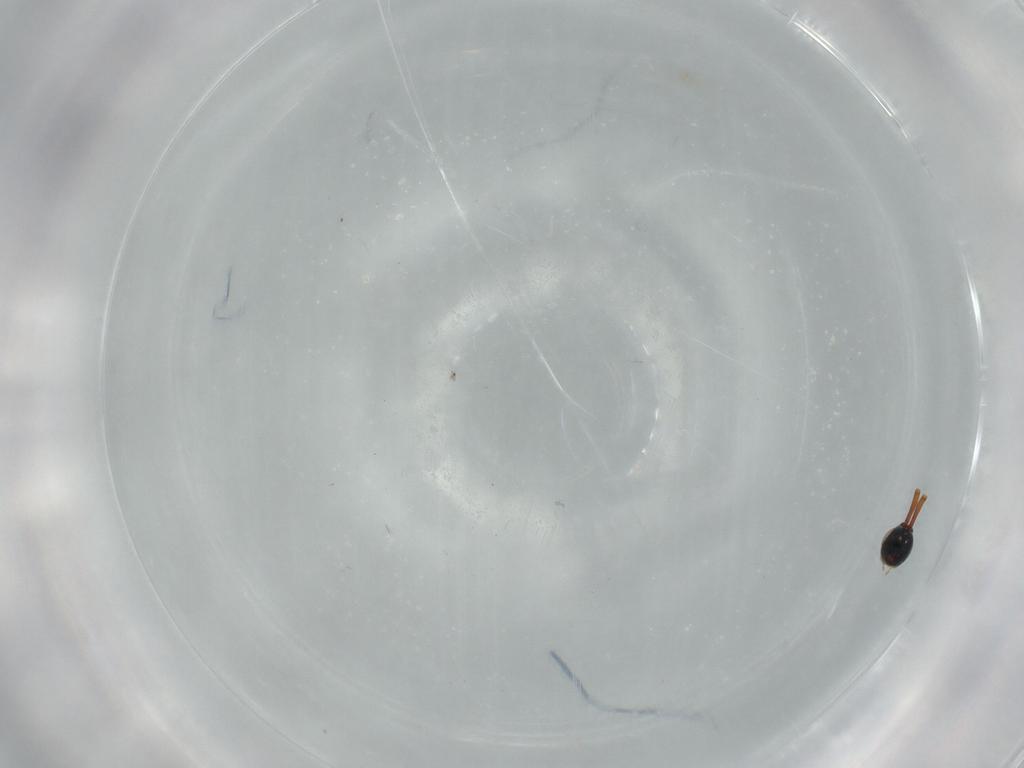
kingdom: Animalia
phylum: Arthropoda
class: Insecta
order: Hymenoptera
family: Diapriidae
